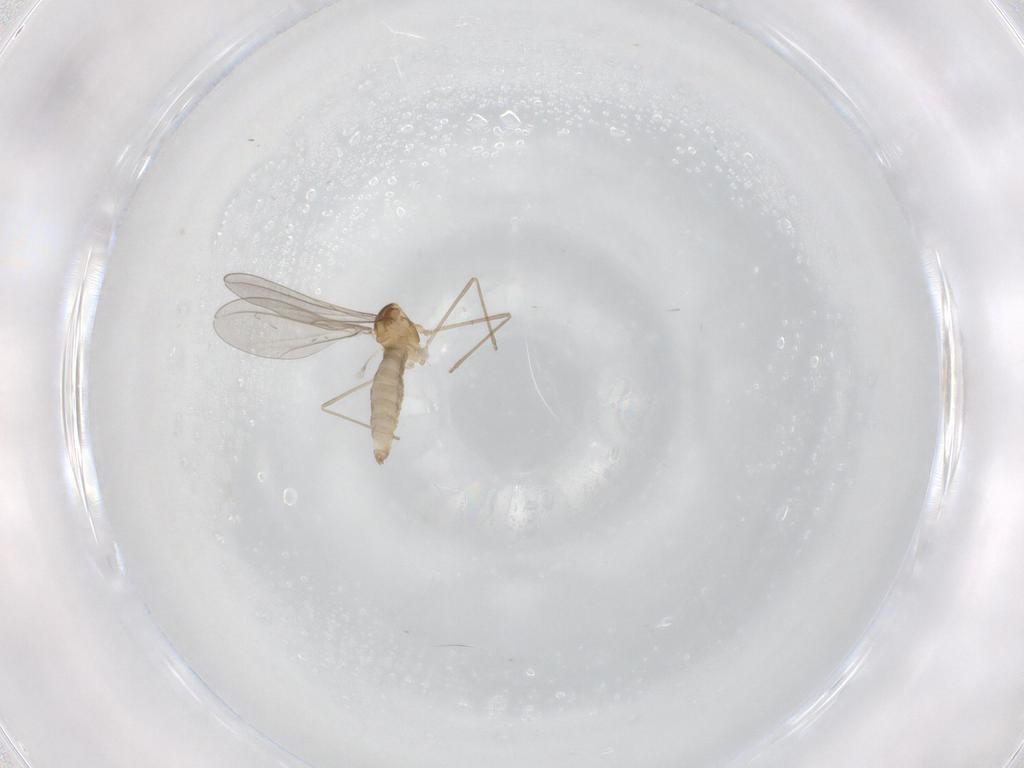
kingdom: Animalia
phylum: Arthropoda
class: Insecta
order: Diptera
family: Cecidomyiidae
